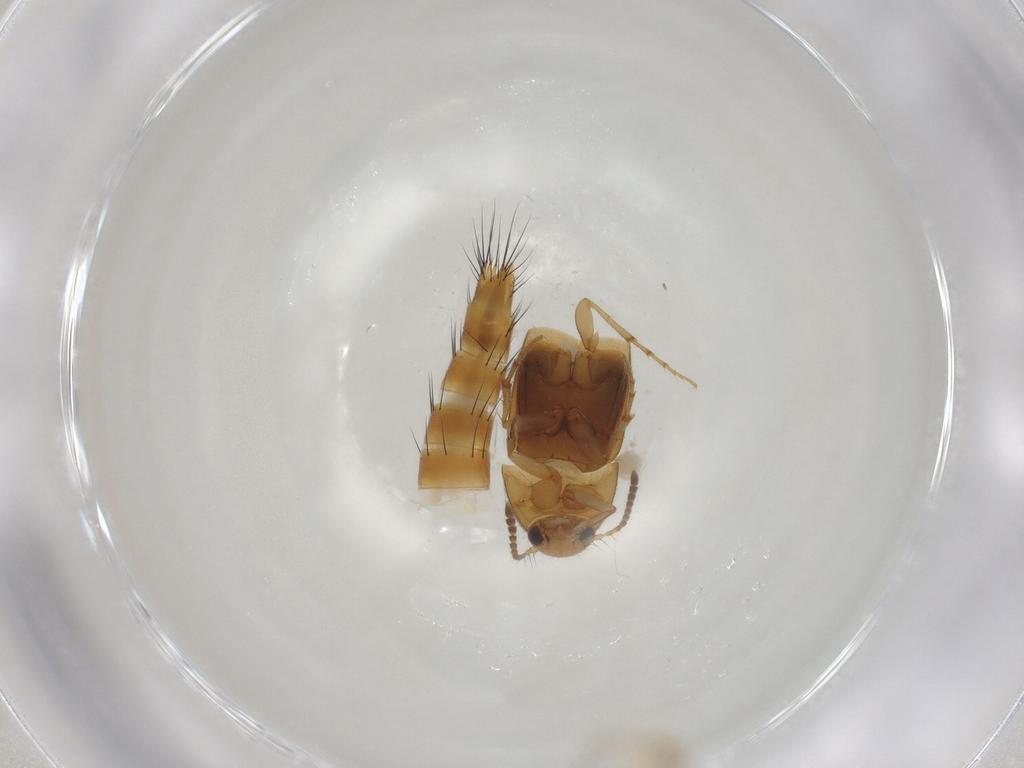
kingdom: Animalia
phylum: Arthropoda
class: Insecta
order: Coleoptera
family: Staphylinidae
